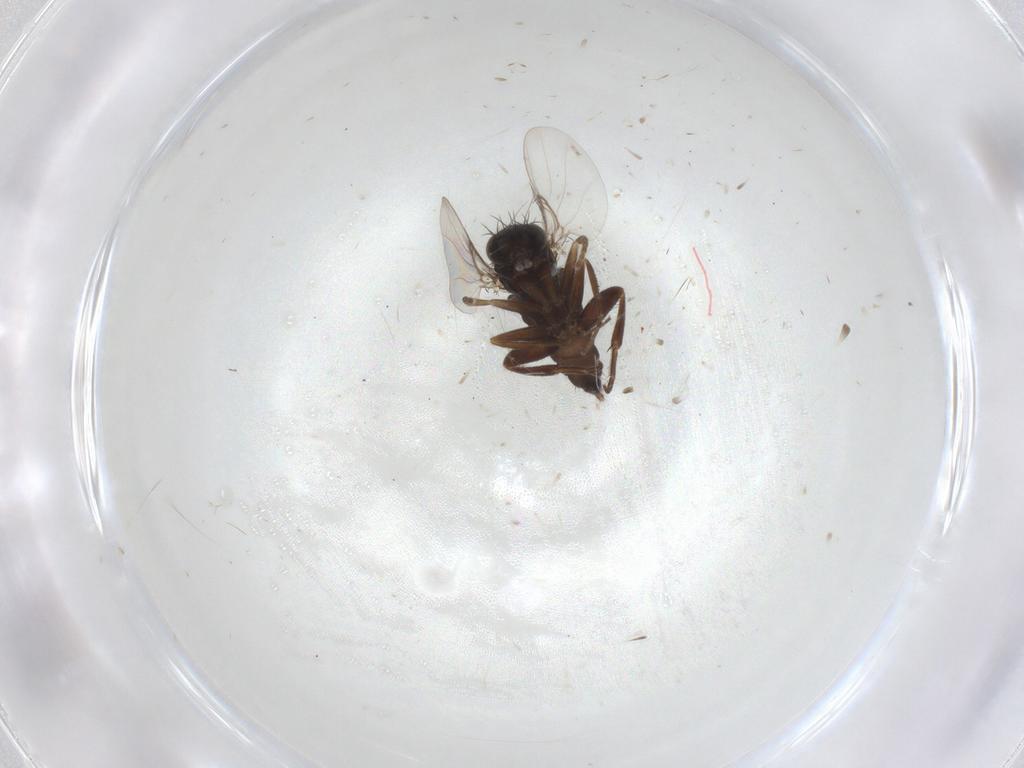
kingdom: Animalia
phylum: Arthropoda
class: Insecta
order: Diptera
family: Phoridae
